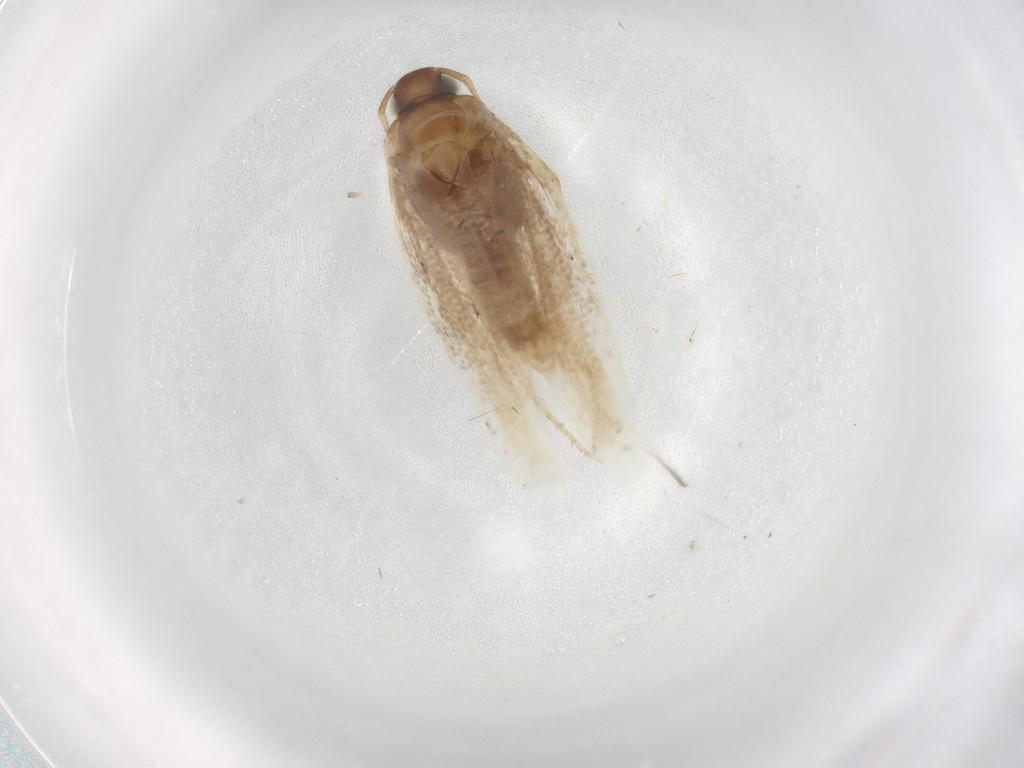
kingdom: Animalia
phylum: Arthropoda
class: Insecta
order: Lepidoptera
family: Gelechiidae
